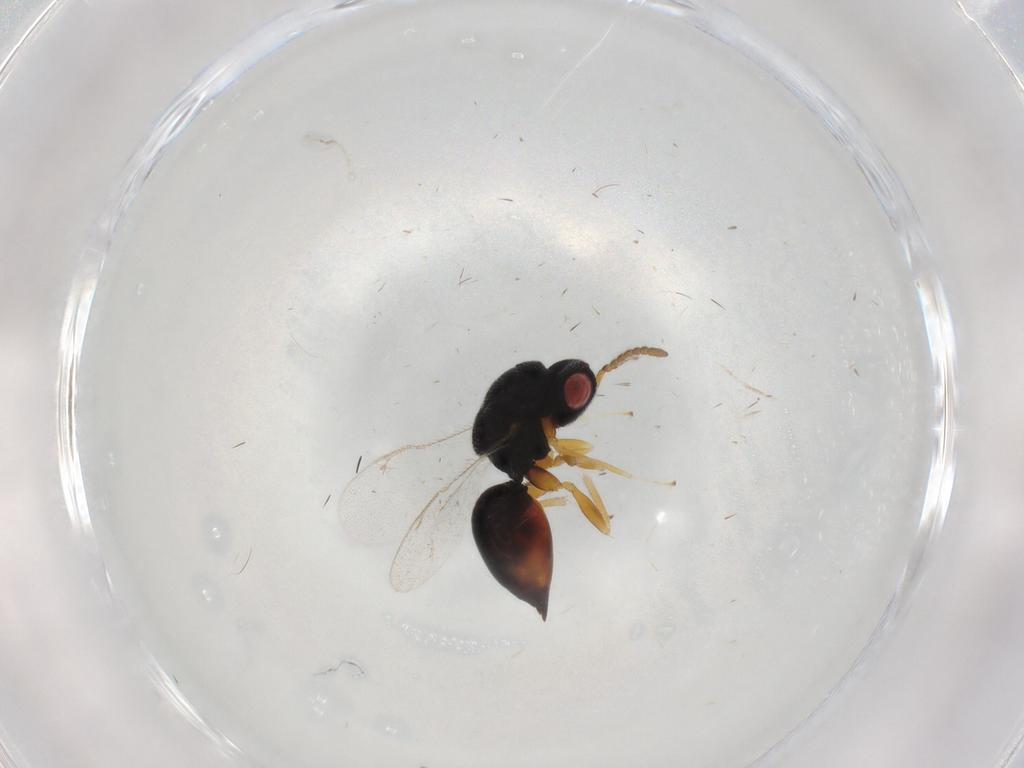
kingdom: Animalia
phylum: Arthropoda
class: Insecta
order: Hymenoptera
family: Eurytomidae
